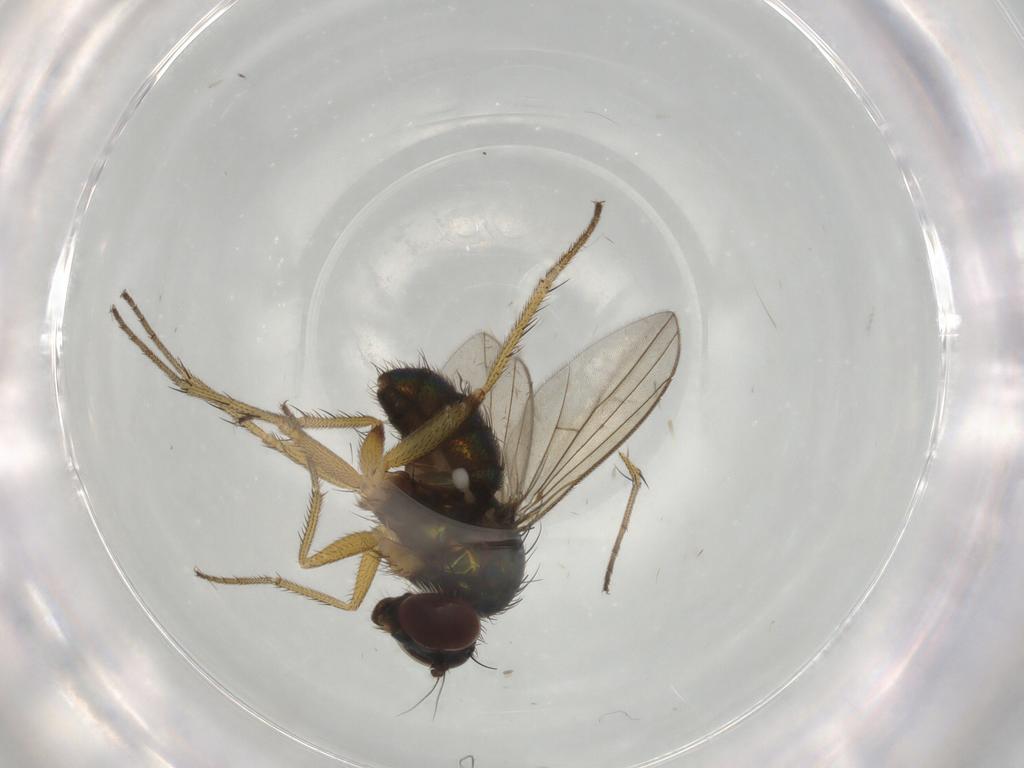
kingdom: Animalia
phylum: Arthropoda
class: Insecta
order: Diptera
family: Dolichopodidae
